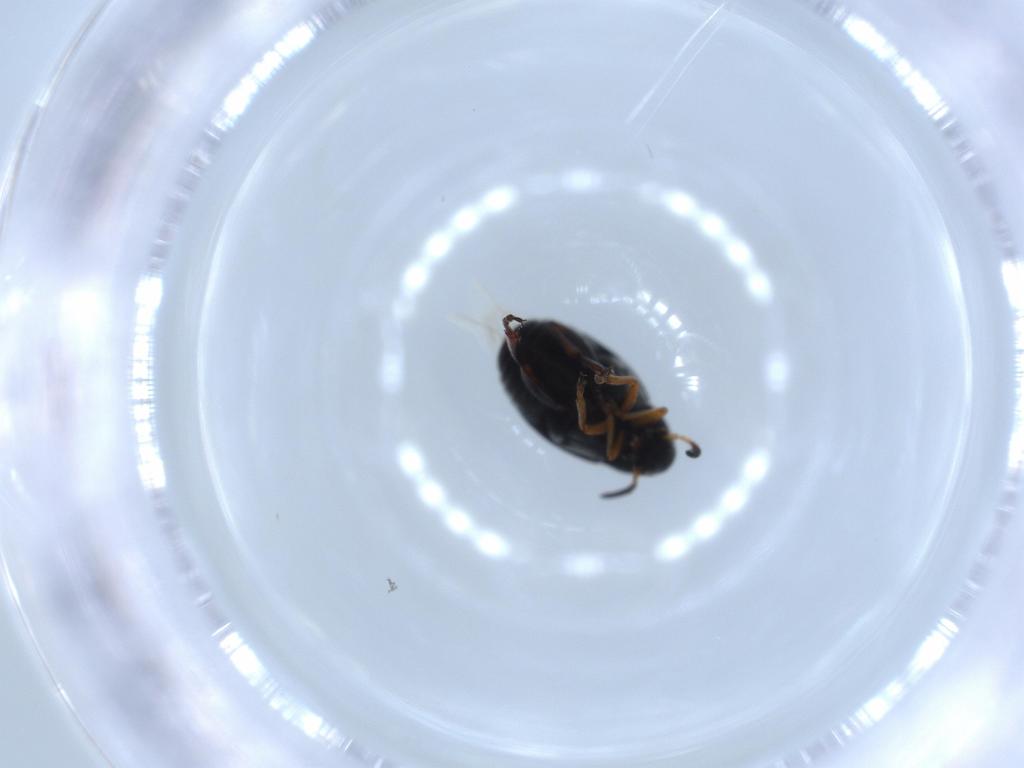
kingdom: Animalia
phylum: Arthropoda
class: Insecta
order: Coleoptera
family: Chrysomelidae
